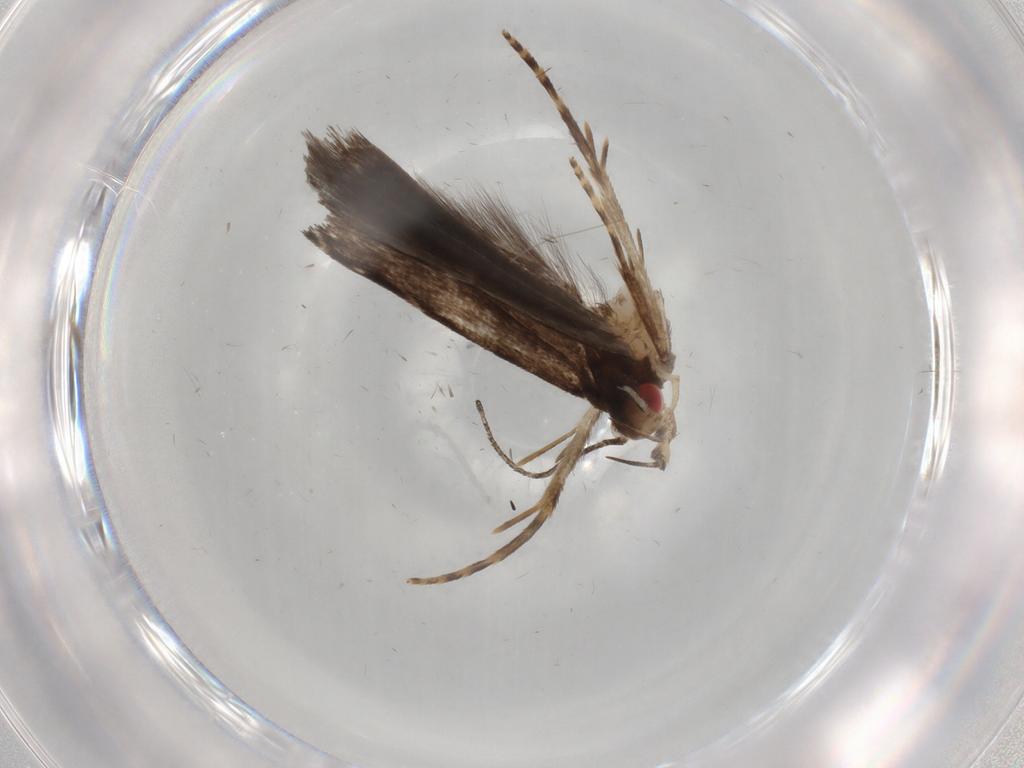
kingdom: Animalia
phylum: Arthropoda
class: Insecta
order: Lepidoptera
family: Gelechiidae
